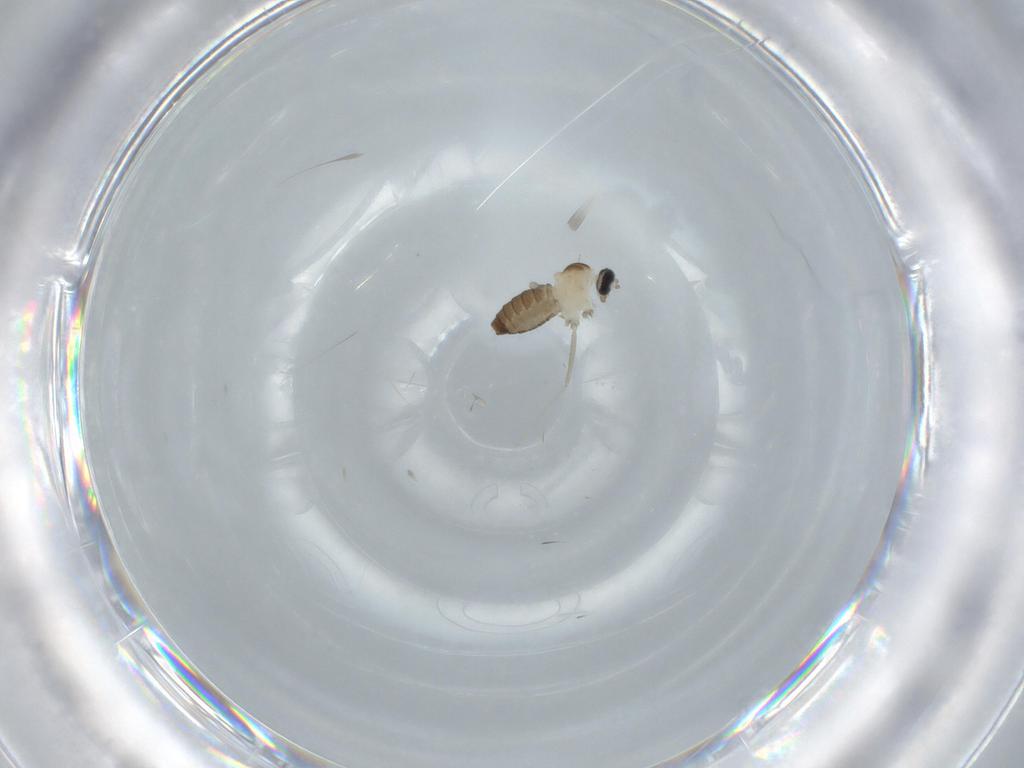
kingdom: Animalia
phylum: Arthropoda
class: Insecta
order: Diptera
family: Cecidomyiidae
